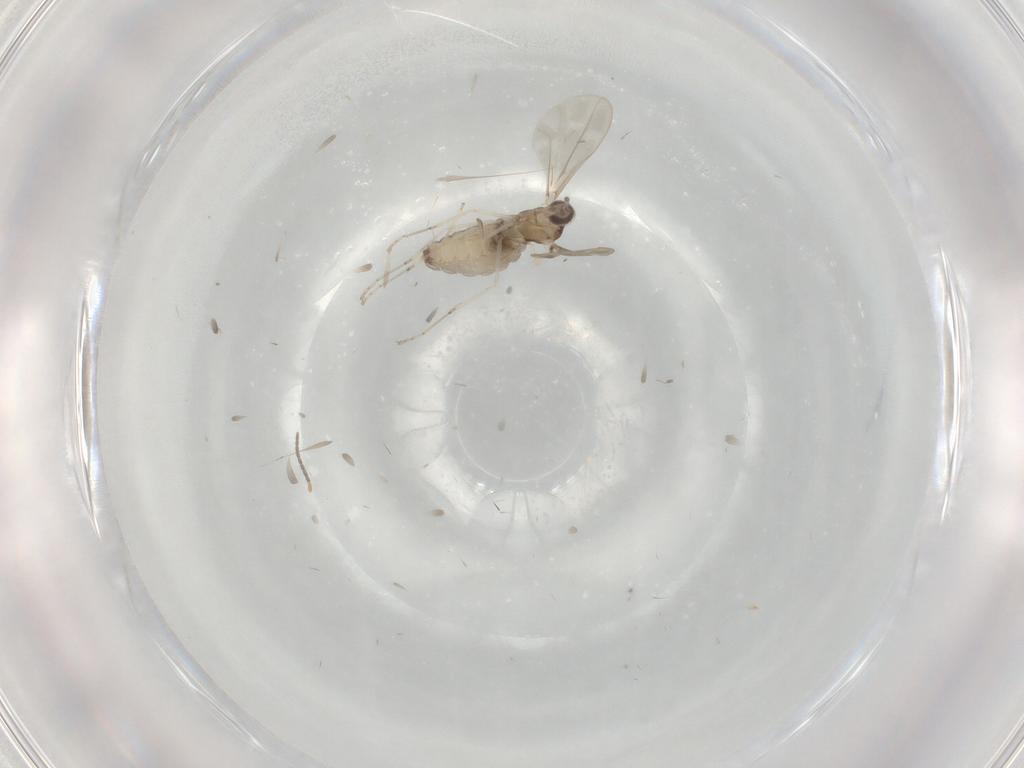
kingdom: Animalia
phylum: Arthropoda
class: Insecta
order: Diptera
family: Cecidomyiidae
